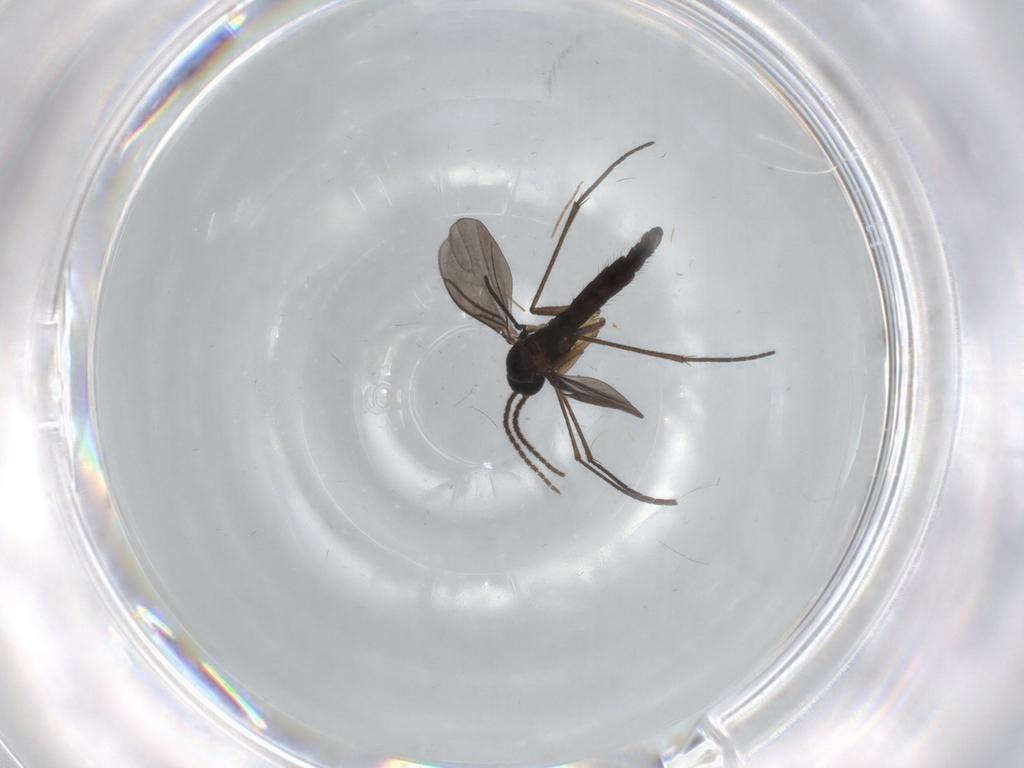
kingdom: Animalia
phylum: Arthropoda
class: Insecta
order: Diptera
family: Sciaridae
